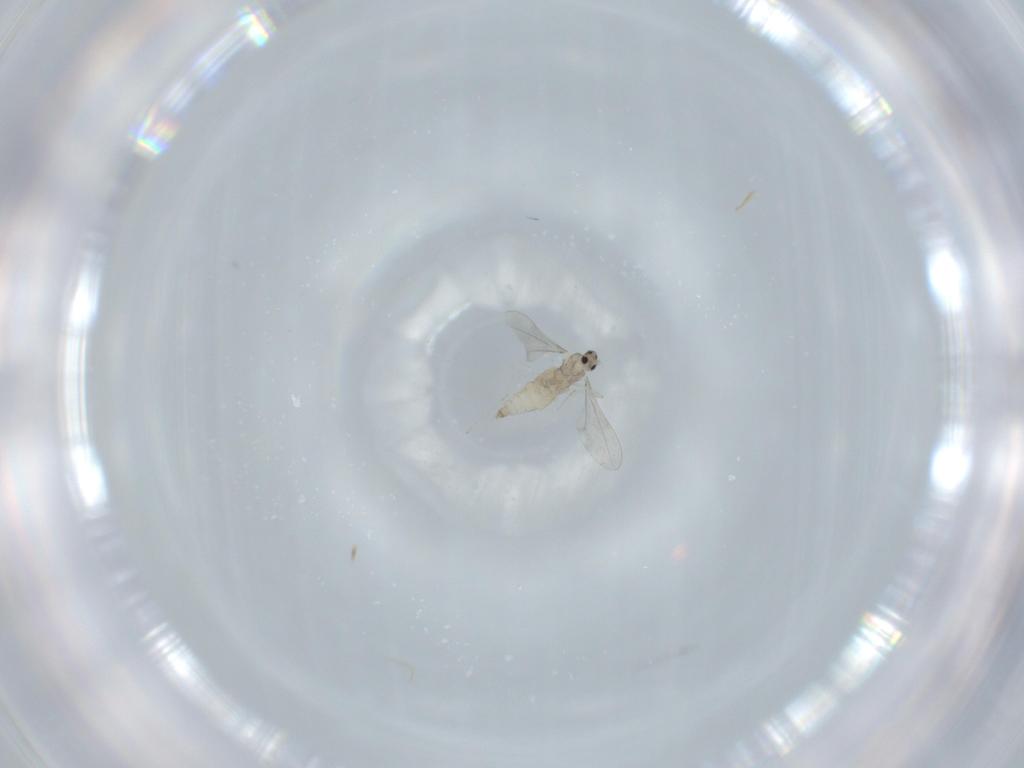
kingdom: Animalia
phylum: Arthropoda
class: Insecta
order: Diptera
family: Cecidomyiidae
